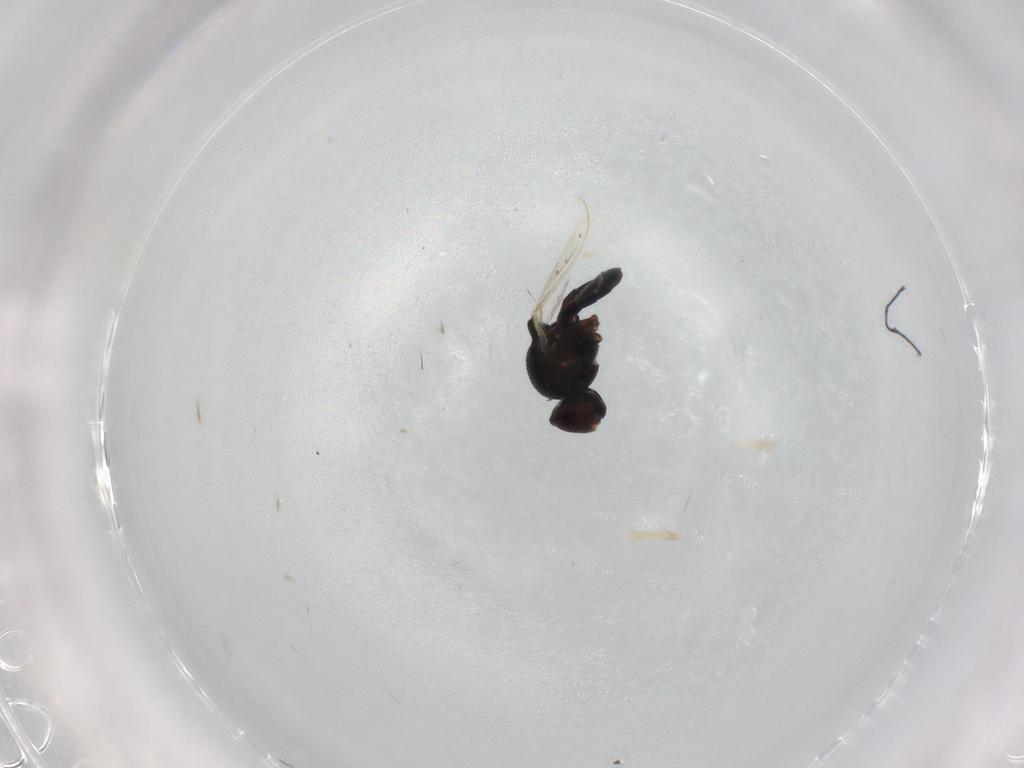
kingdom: Animalia
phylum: Arthropoda
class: Insecta
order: Diptera
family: Chloropidae
